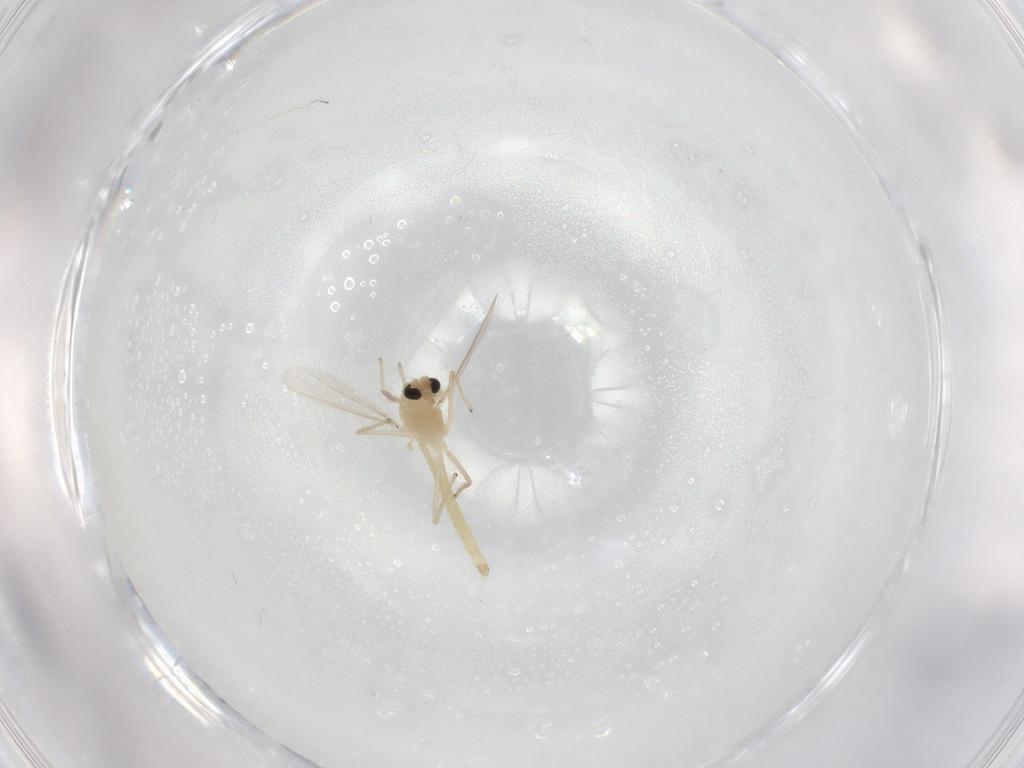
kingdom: Animalia
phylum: Arthropoda
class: Insecta
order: Diptera
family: Chironomidae
